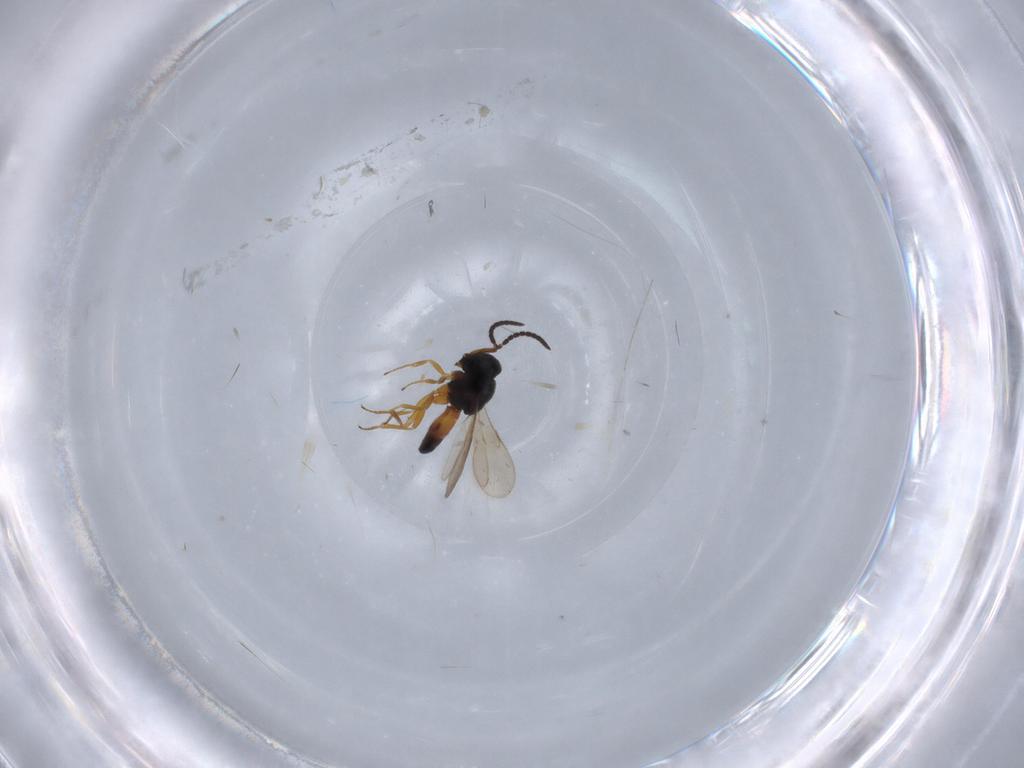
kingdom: Animalia
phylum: Arthropoda
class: Insecta
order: Hymenoptera
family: Scelionidae
